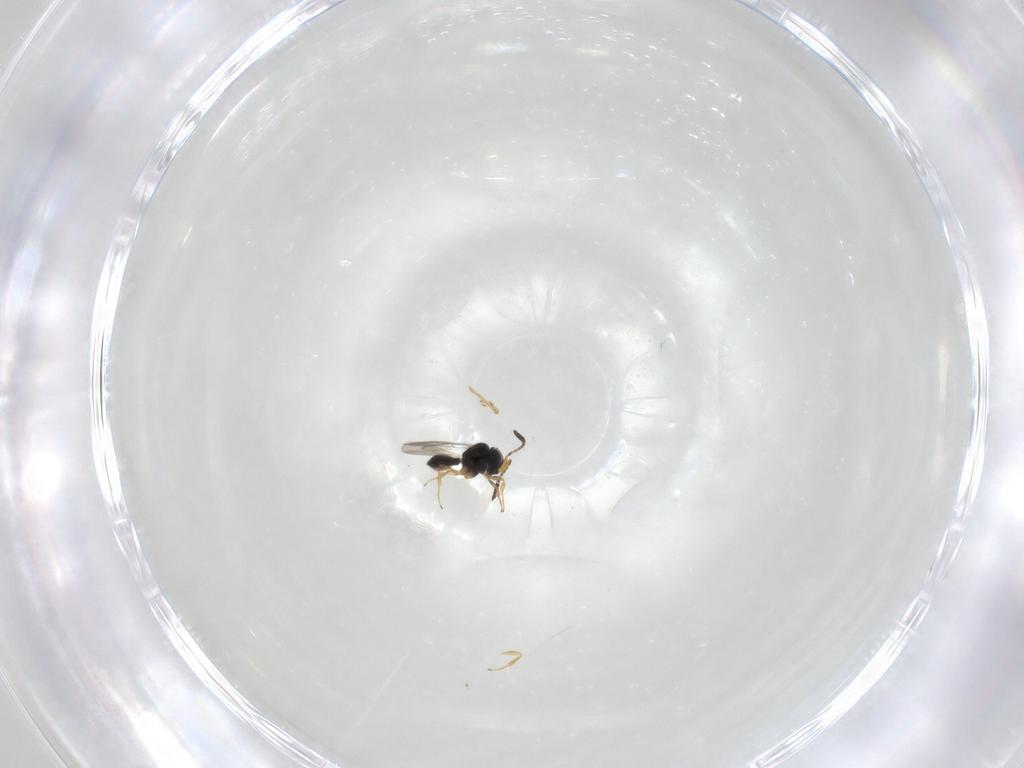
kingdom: Animalia
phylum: Arthropoda
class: Insecta
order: Hymenoptera
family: Scelionidae
